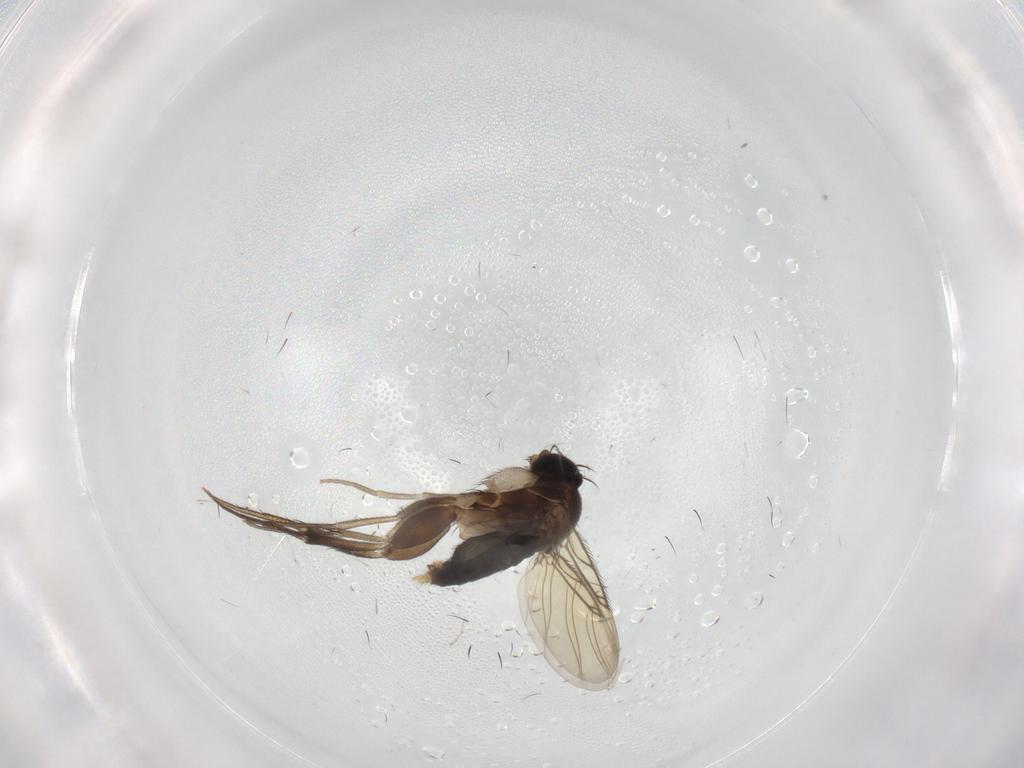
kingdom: Animalia
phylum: Arthropoda
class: Insecta
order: Diptera
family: Phoridae
